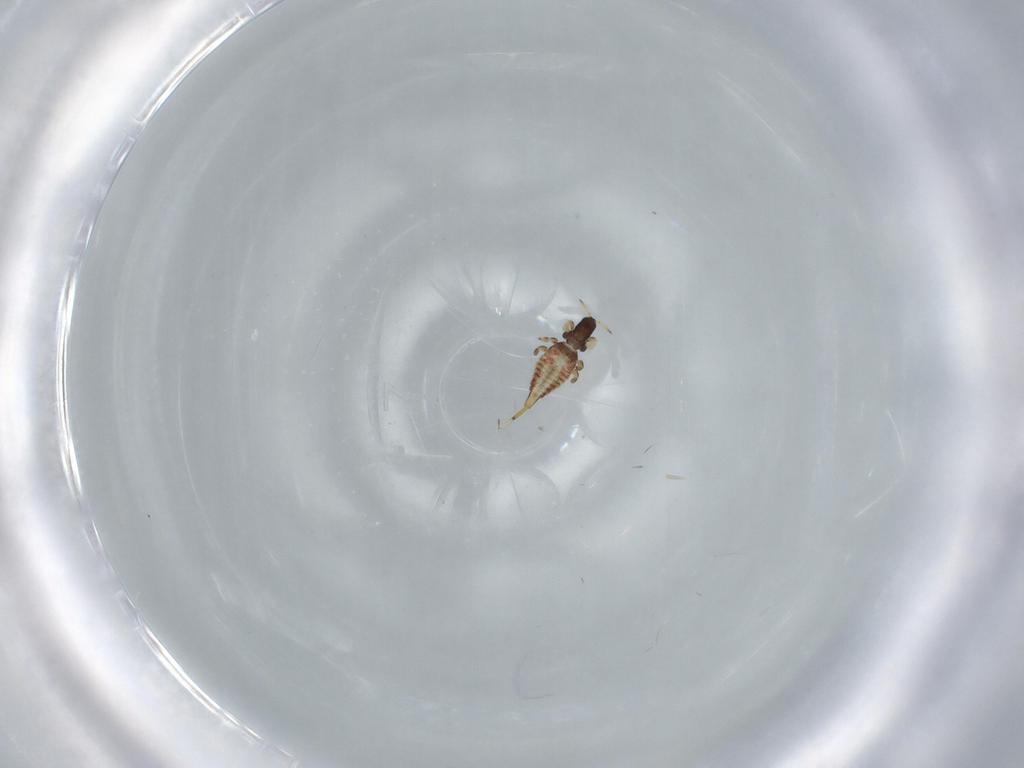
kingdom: Animalia
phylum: Arthropoda
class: Insecta
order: Thysanoptera
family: Phlaeothripidae
